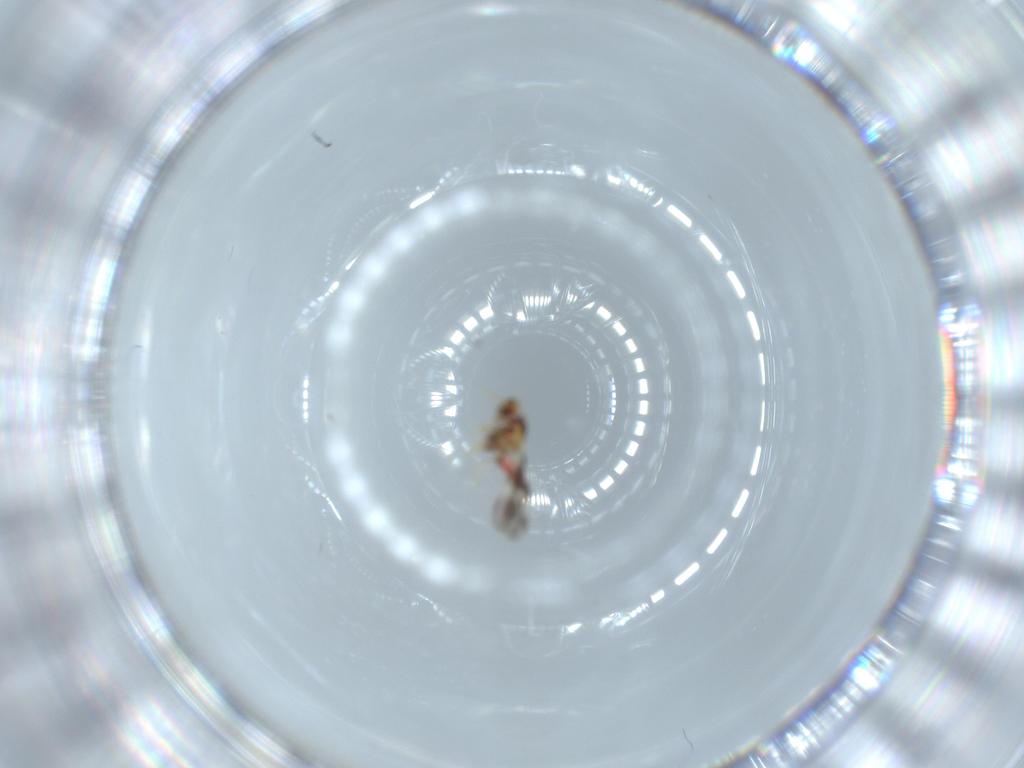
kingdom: Animalia
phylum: Arthropoda
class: Insecta
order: Hemiptera
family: Aleyrodidae
